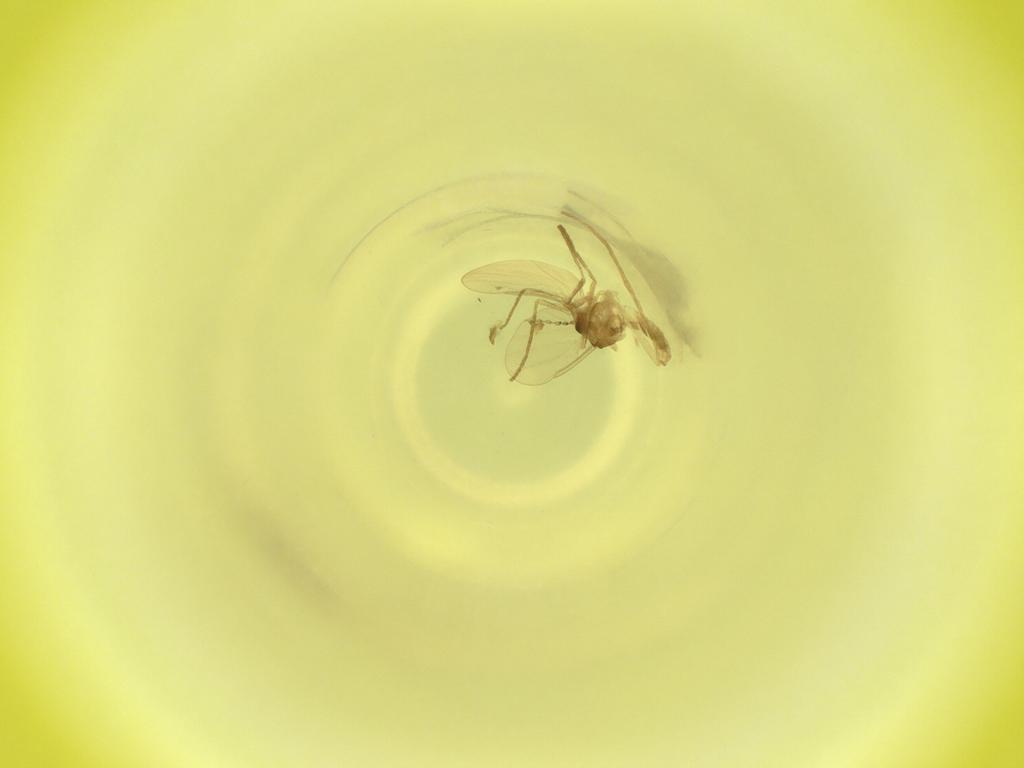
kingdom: Animalia
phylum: Arthropoda
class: Insecta
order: Diptera
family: Cecidomyiidae
